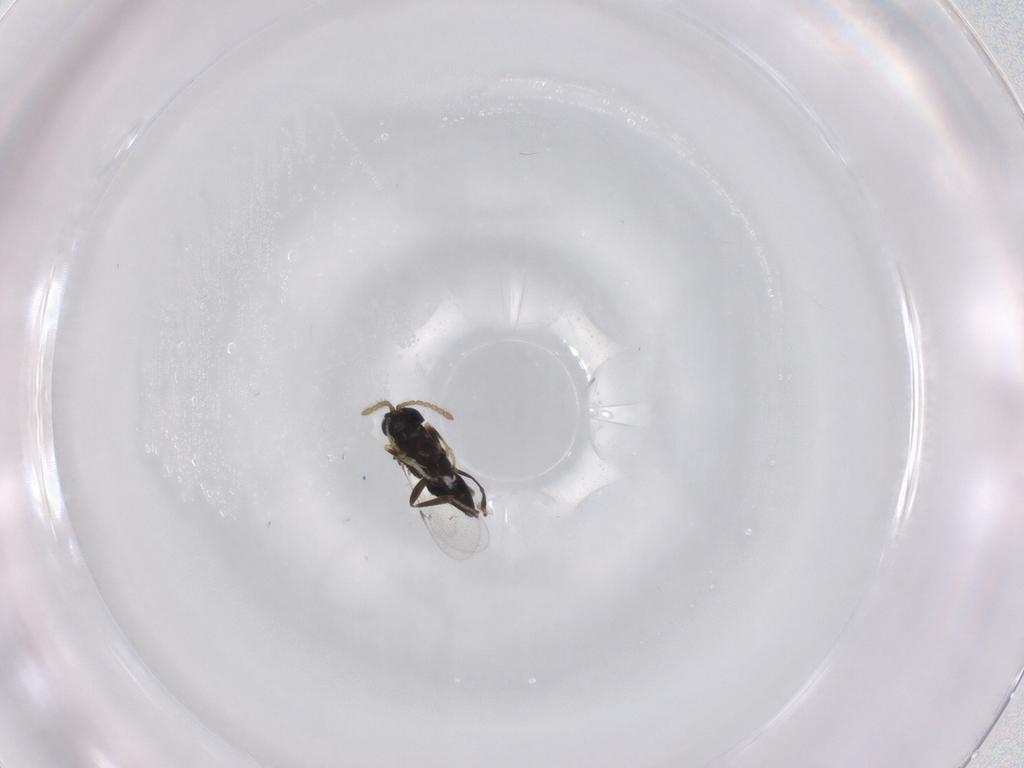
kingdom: Animalia
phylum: Arthropoda
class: Insecta
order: Hymenoptera
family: Encyrtidae
